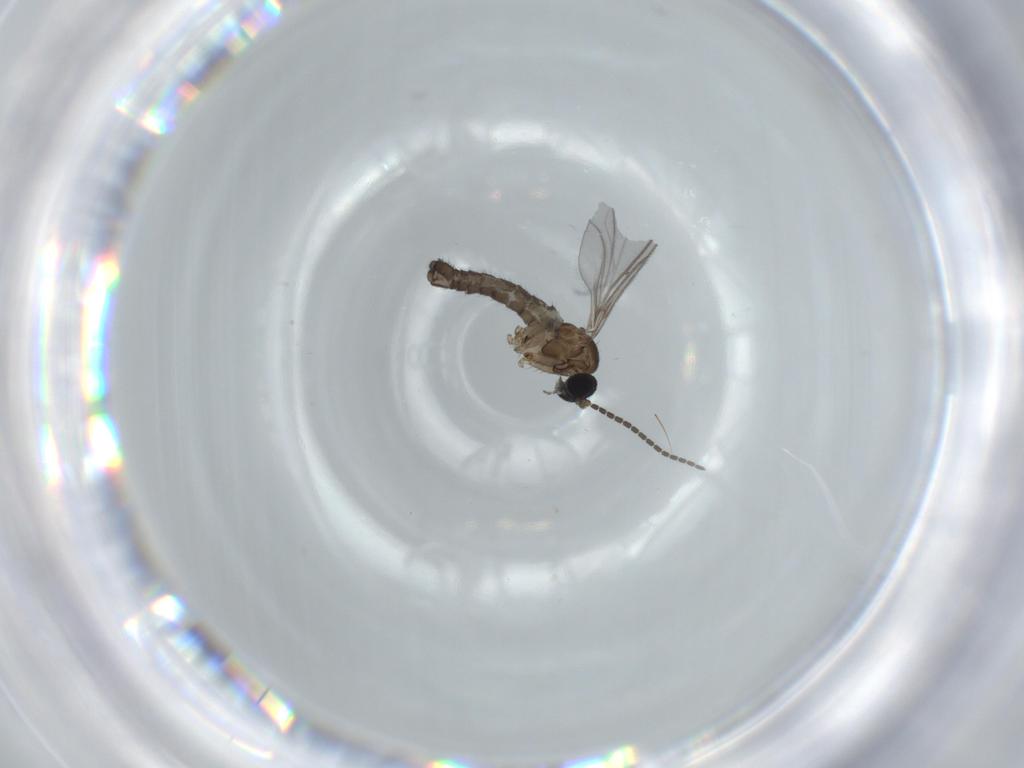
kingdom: Animalia
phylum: Arthropoda
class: Insecta
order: Diptera
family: Sciaridae
